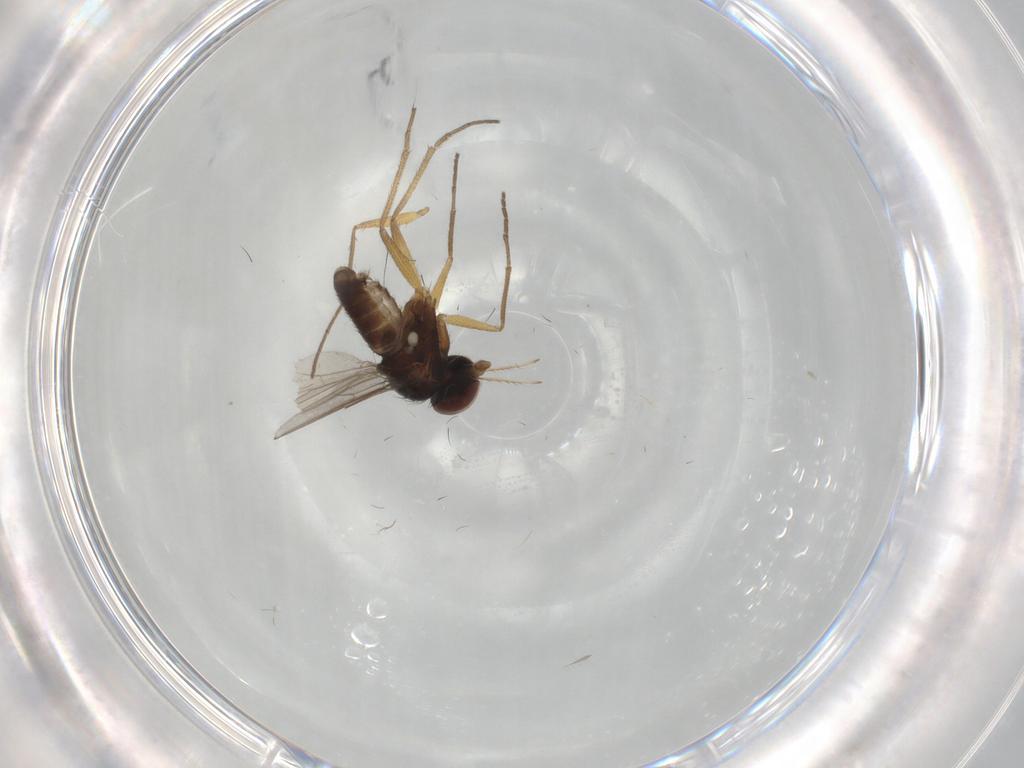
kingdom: Animalia
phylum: Arthropoda
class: Insecta
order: Diptera
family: Dolichopodidae
